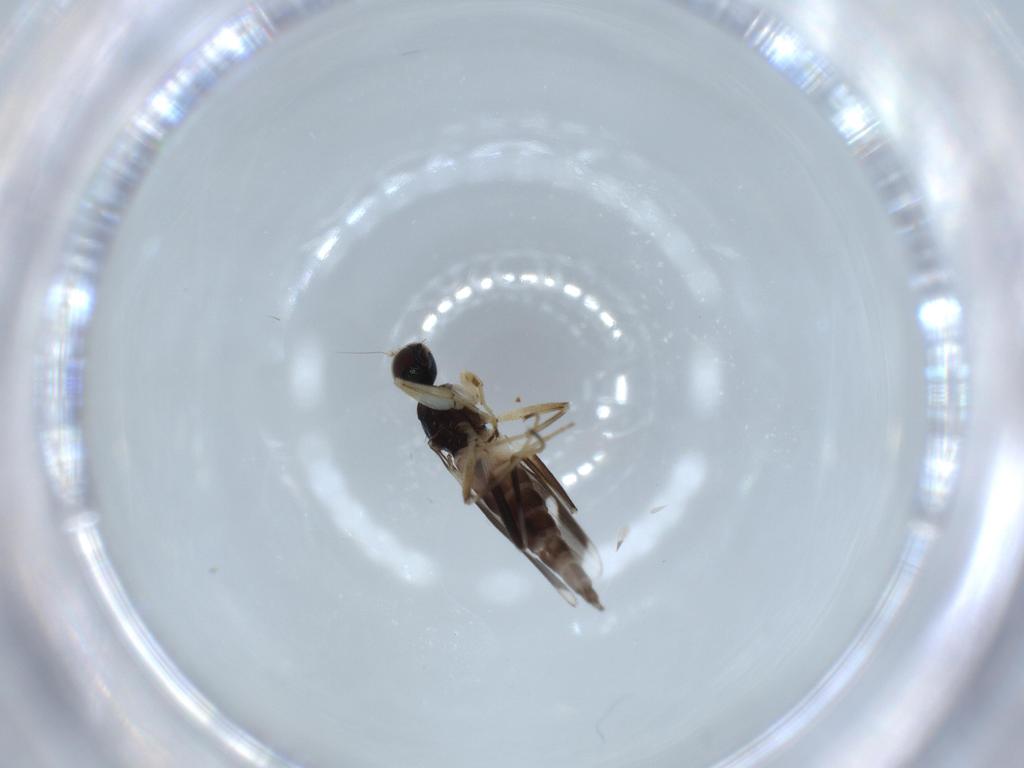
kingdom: Animalia
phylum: Arthropoda
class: Insecta
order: Diptera
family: Hybotidae
